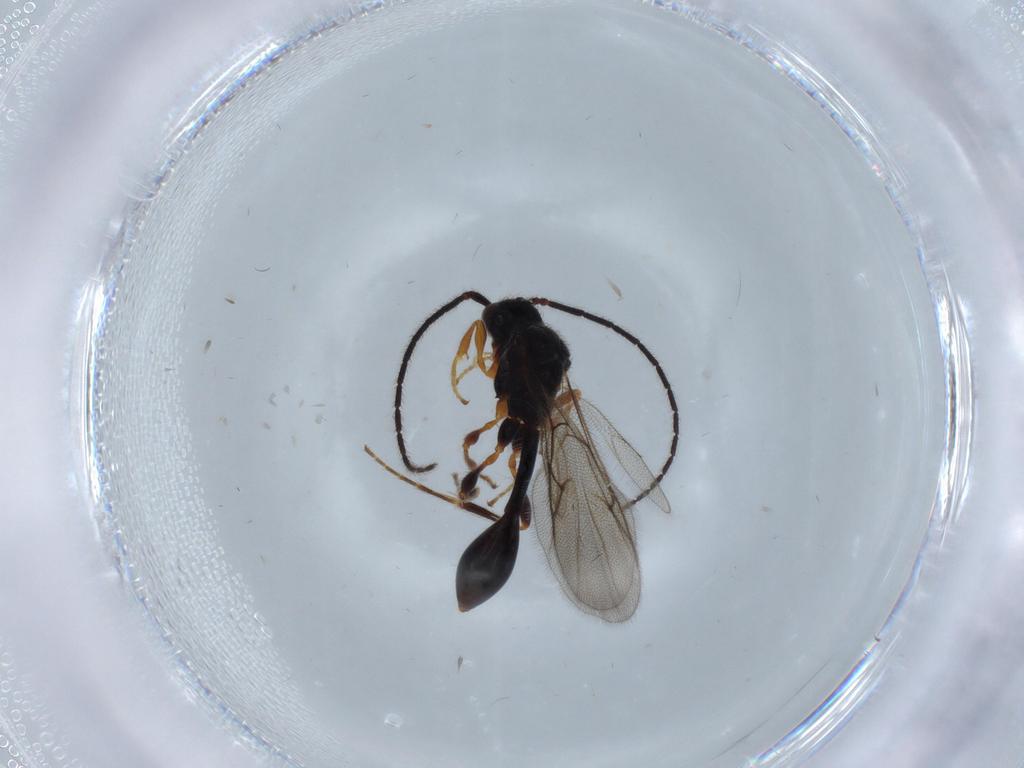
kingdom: Animalia
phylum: Arthropoda
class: Insecta
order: Hymenoptera
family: Diapriidae
